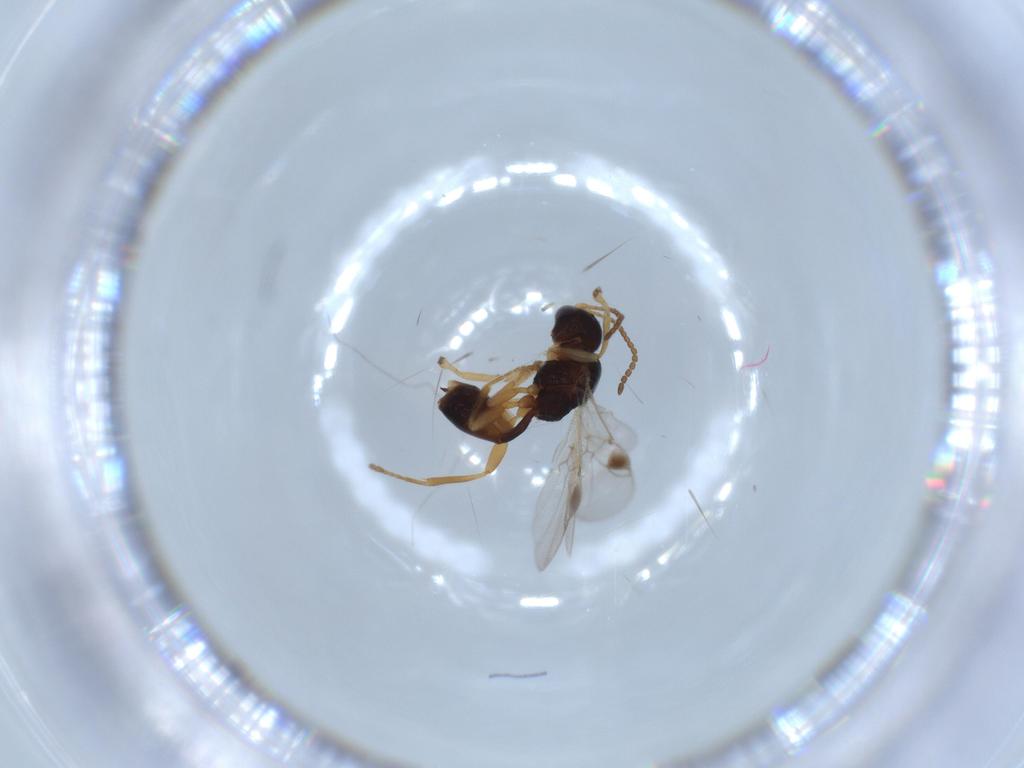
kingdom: Animalia
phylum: Arthropoda
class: Insecta
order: Hymenoptera
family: Braconidae
